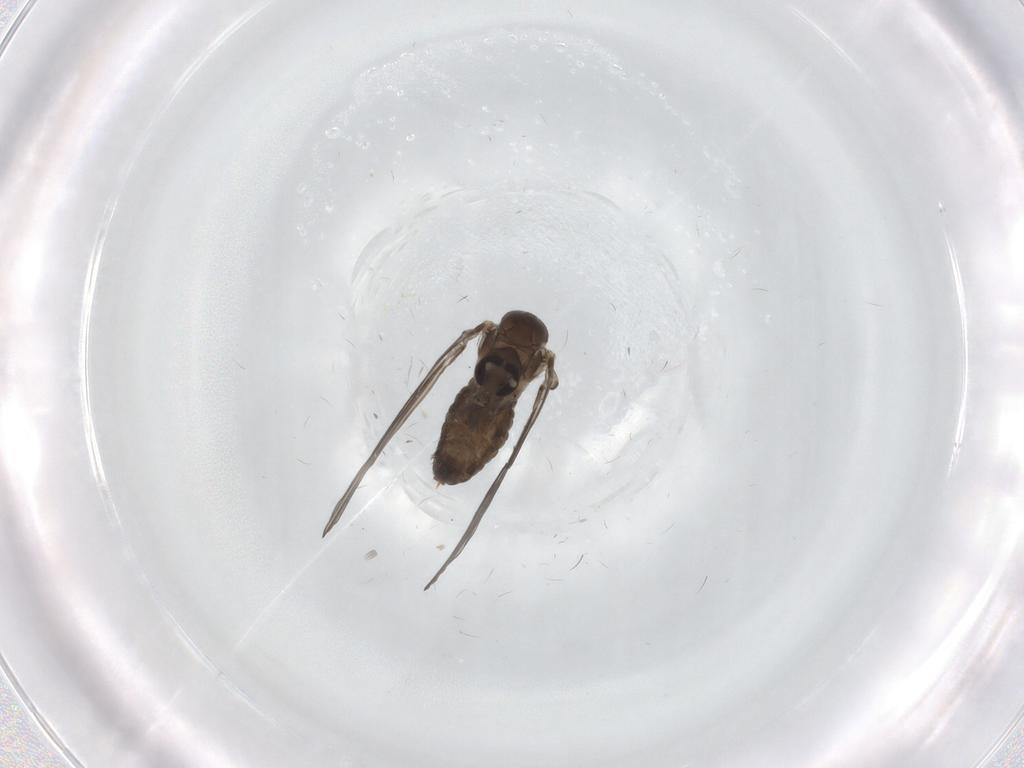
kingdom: Animalia
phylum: Arthropoda
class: Insecta
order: Diptera
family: Psychodidae
